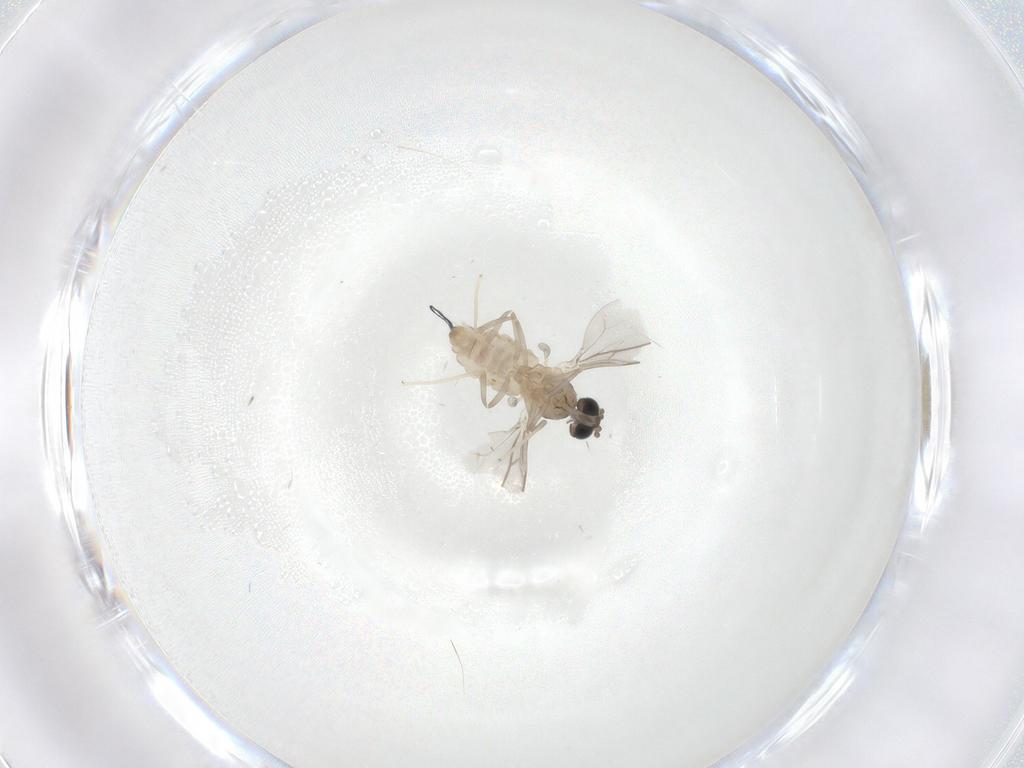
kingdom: Animalia
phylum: Arthropoda
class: Insecta
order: Diptera
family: Cecidomyiidae
